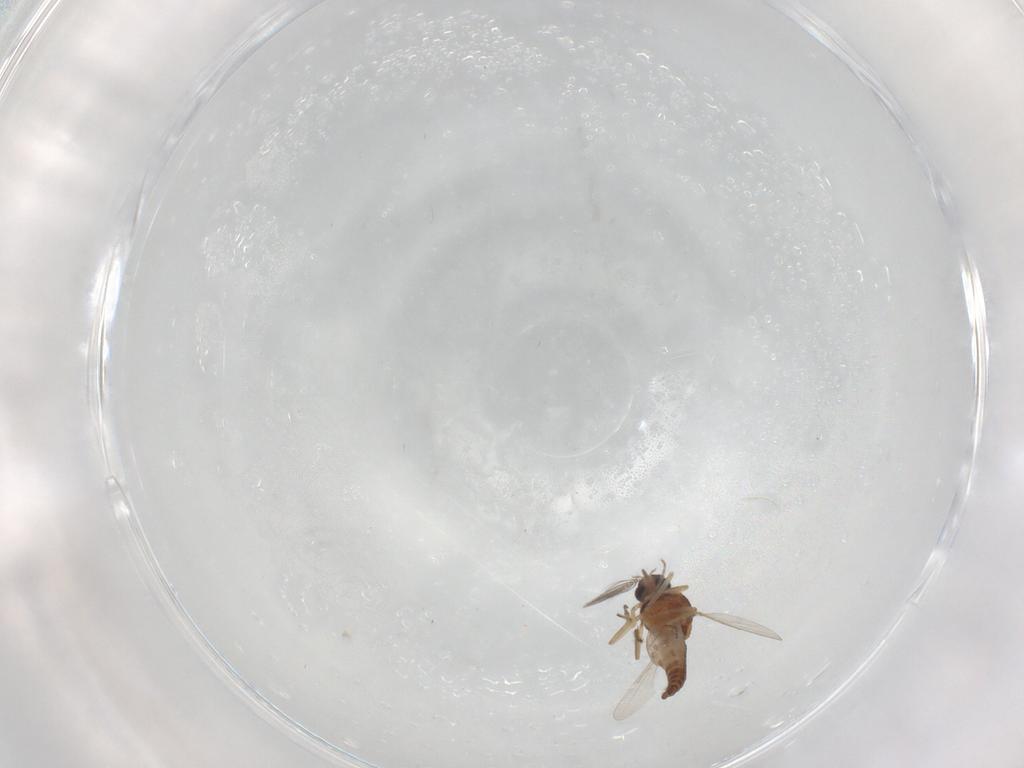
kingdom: Animalia
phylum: Arthropoda
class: Insecta
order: Diptera
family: Ceratopogonidae
